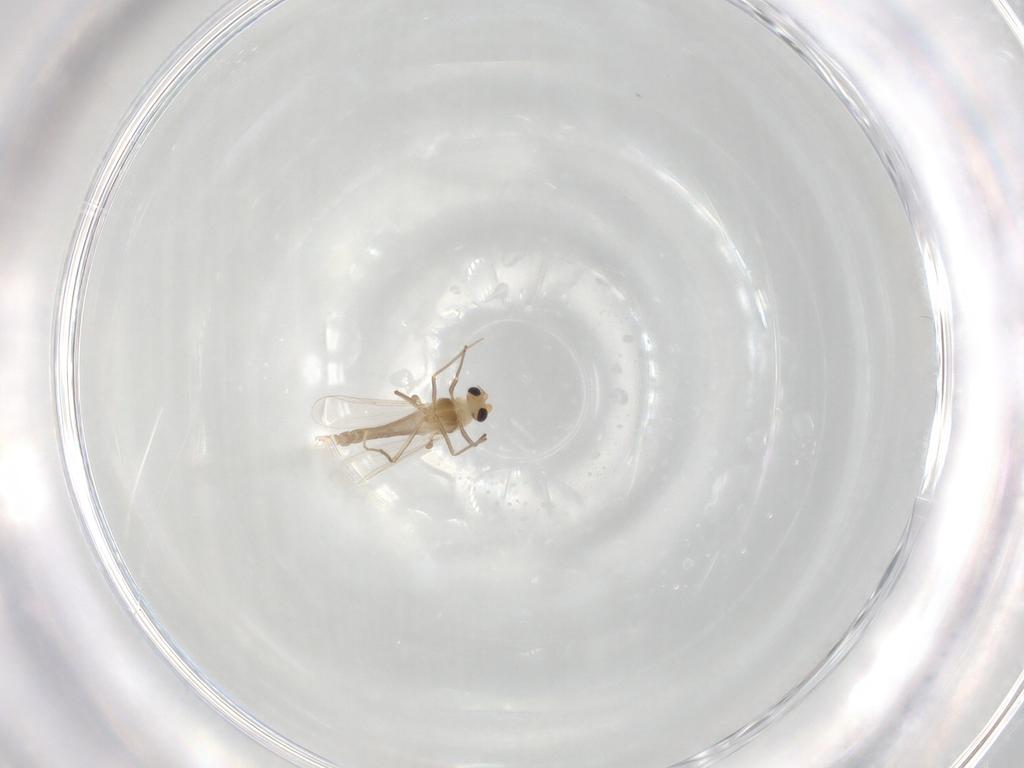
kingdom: Animalia
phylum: Arthropoda
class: Insecta
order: Diptera
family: Chironomidae
